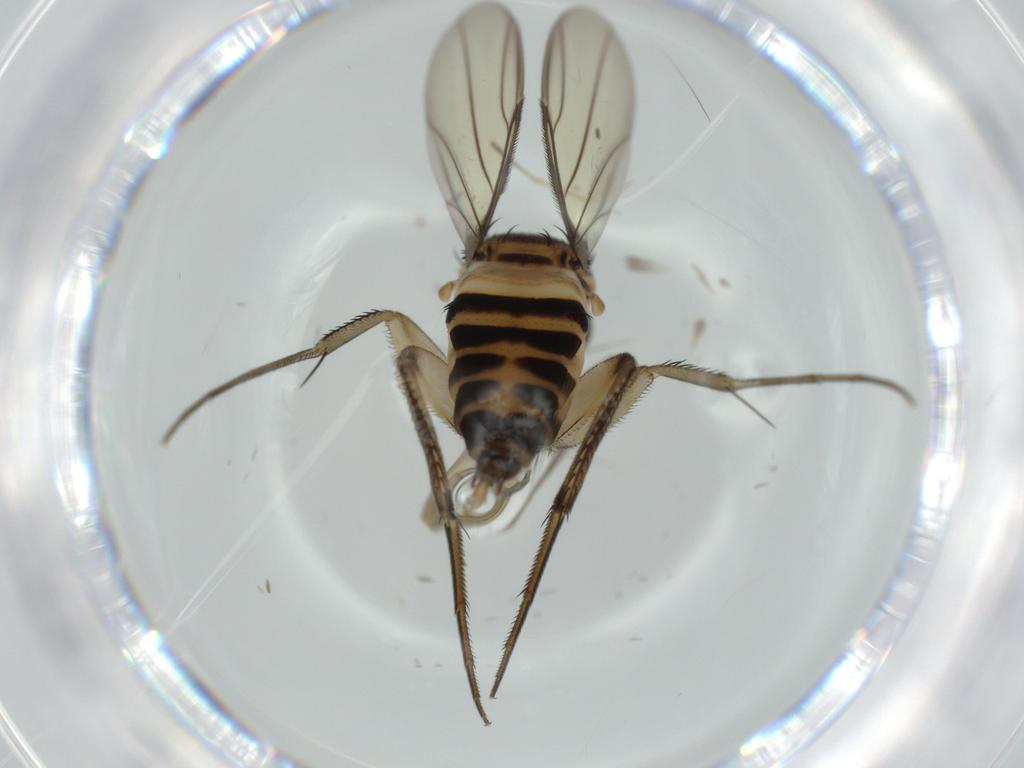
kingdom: Animalia
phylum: Arthropoda
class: Insecta
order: Diptera
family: Phoridae
